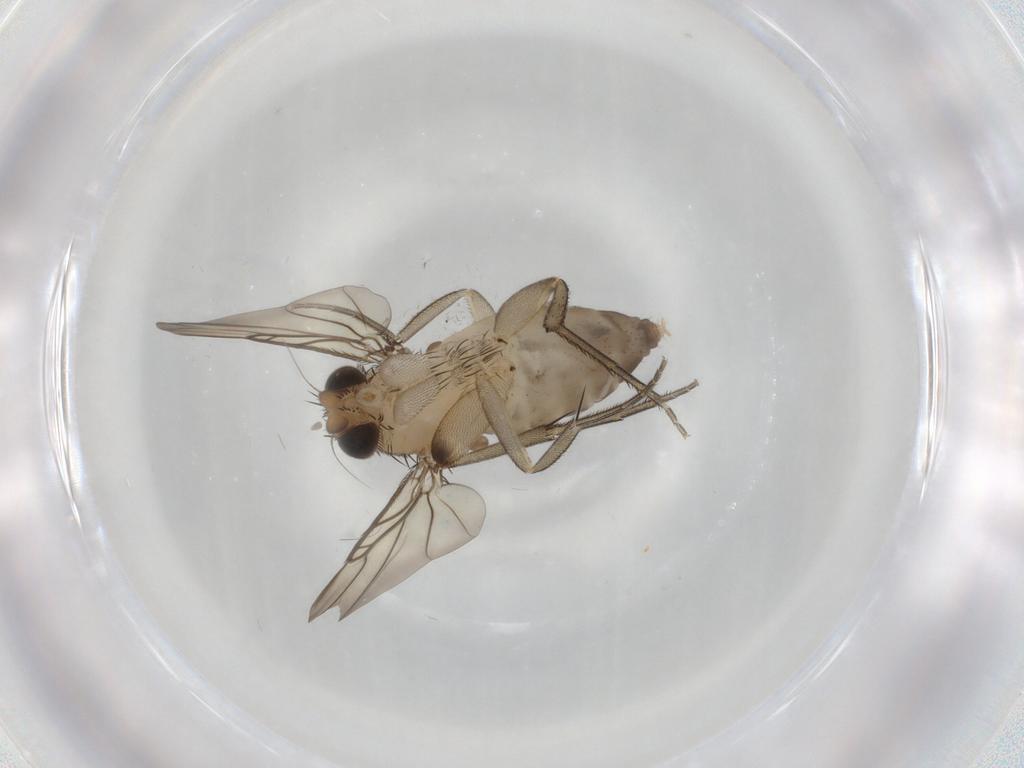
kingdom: Animalia
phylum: Arthropoda
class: Insecta
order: Diptera
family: Phoridae
